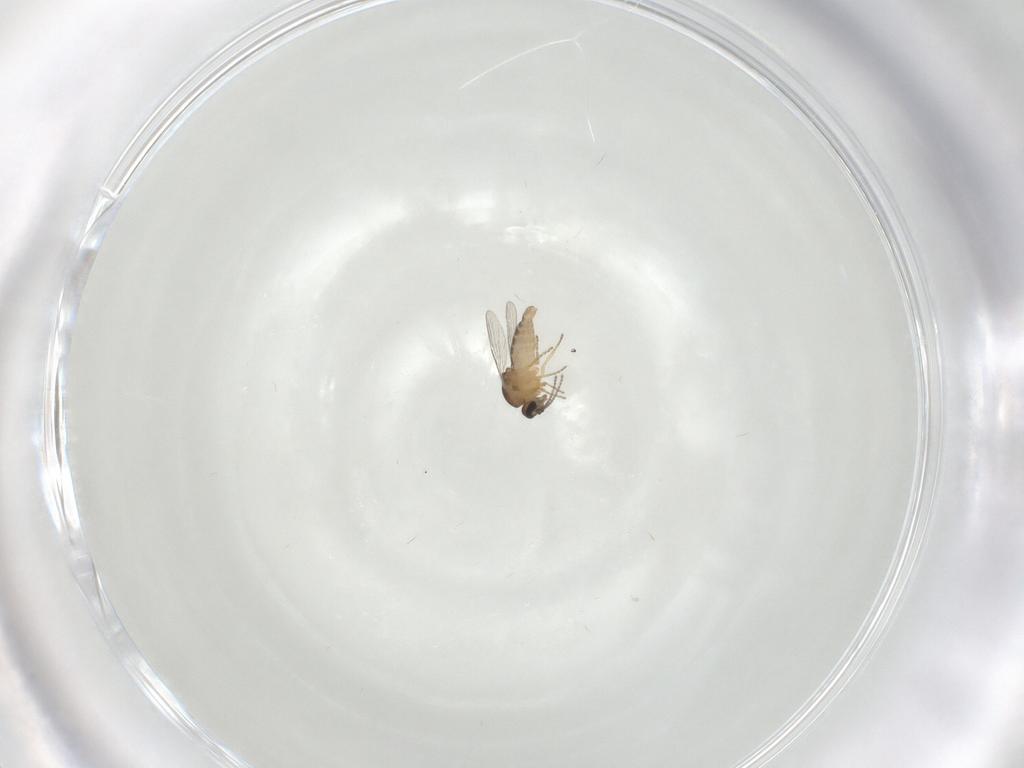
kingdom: Animalia
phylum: Arthropoda
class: Insecta
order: Diptera
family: Ceratopogonidae
